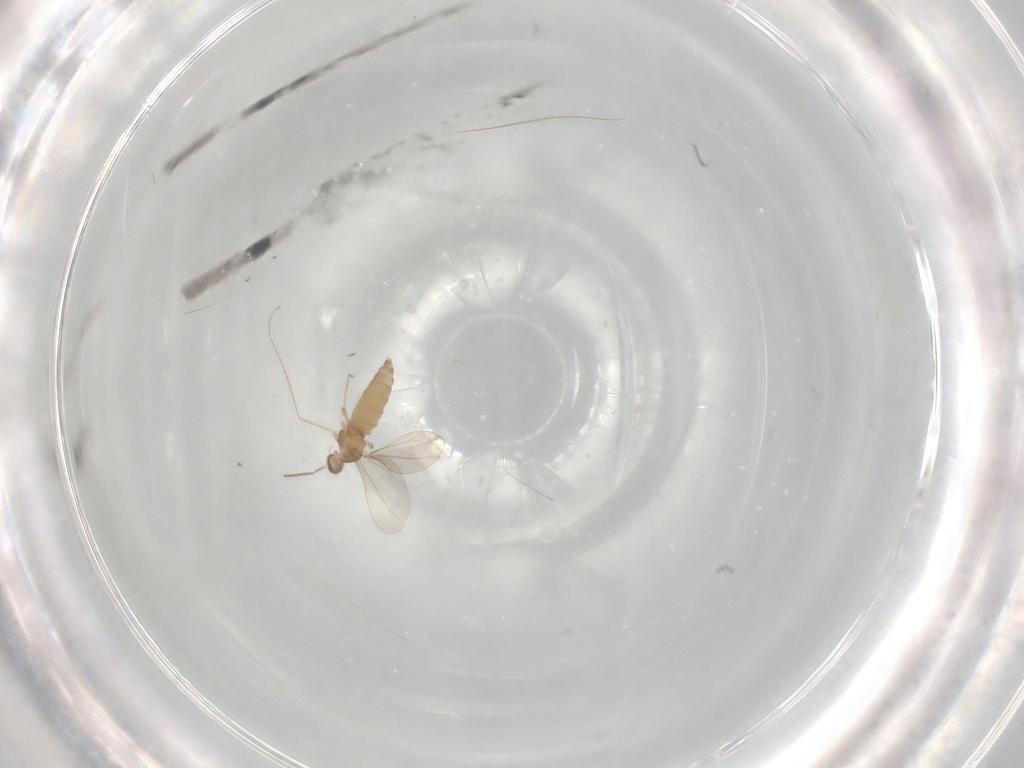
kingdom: Animalia
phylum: Arthropoda
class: Insecta
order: Diptera
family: Cecidomyiidae
